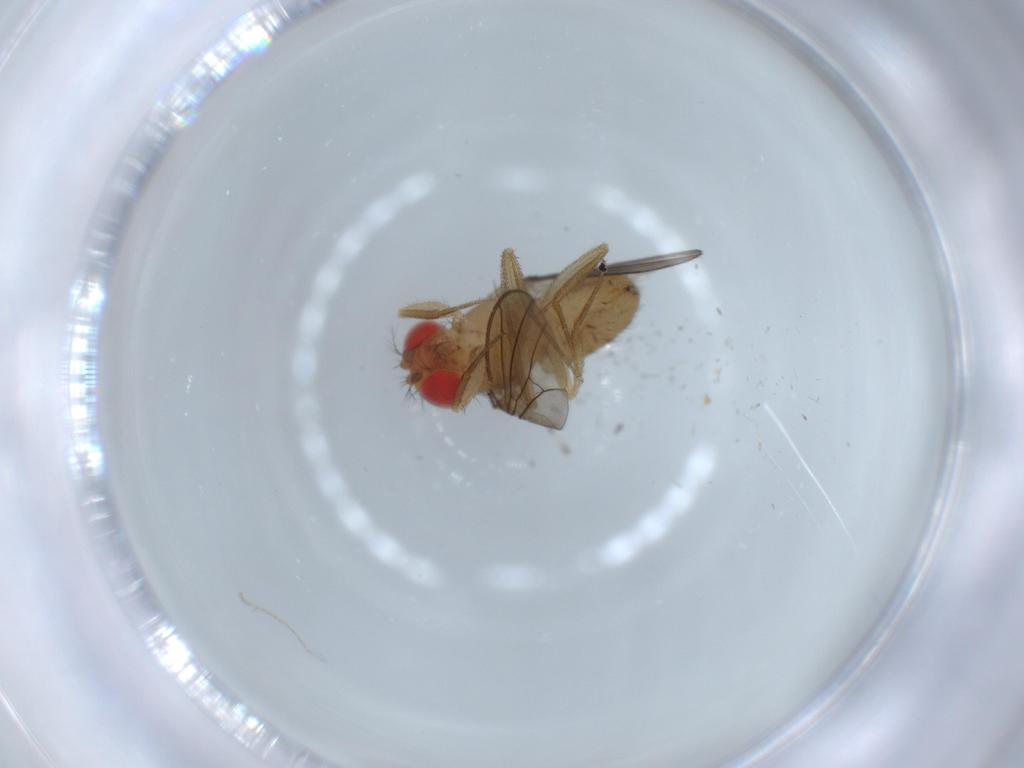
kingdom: Animalia
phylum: Arthropoda
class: Insecta
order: Diptera
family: Drosophilidae
